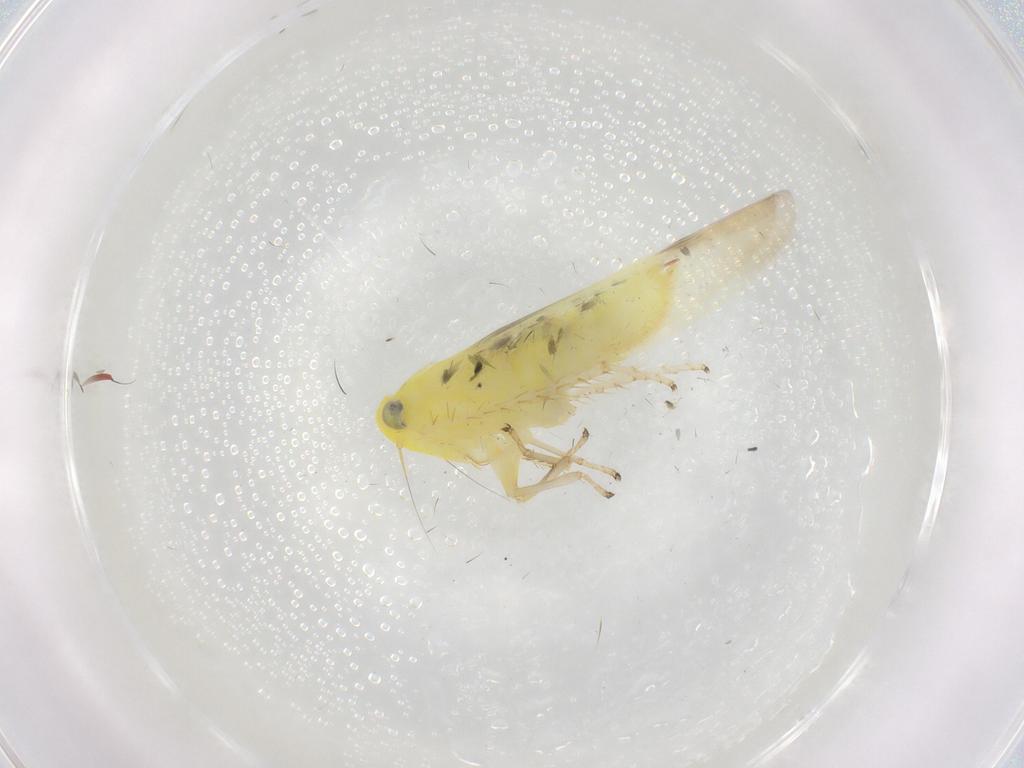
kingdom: Animalia
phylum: Arthropoda
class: Insecta
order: Hemiptera
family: Cicadellidae
